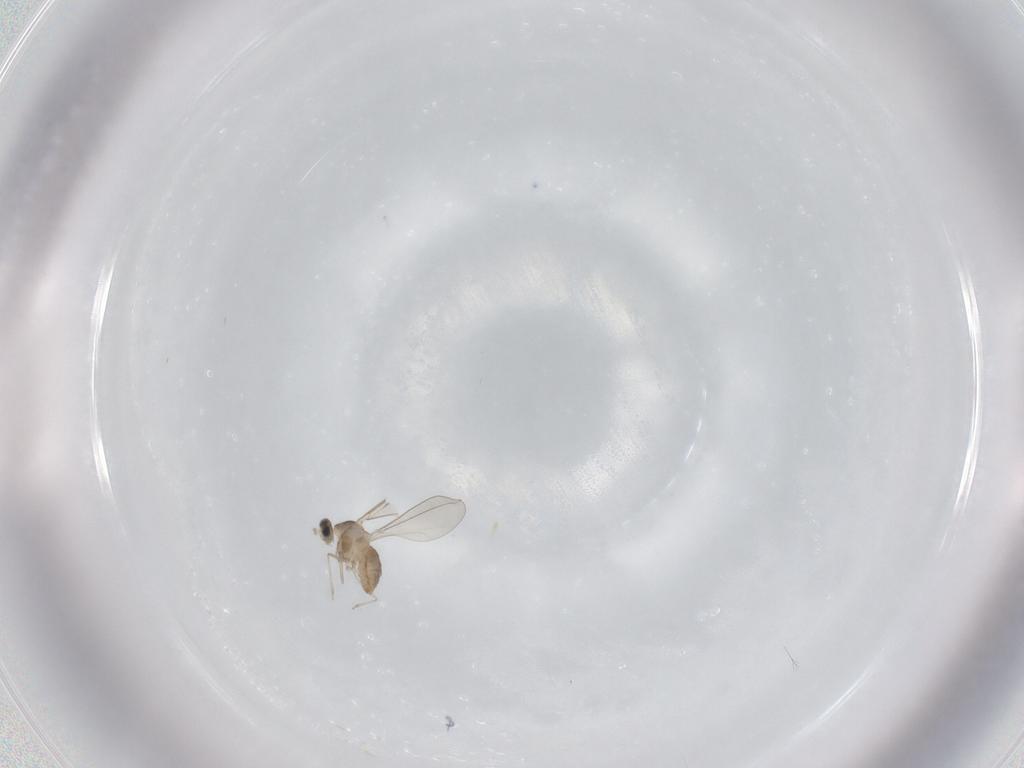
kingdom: Animalia
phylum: Arthropoda
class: Insecta
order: Diptera
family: Cecidomyiidae
